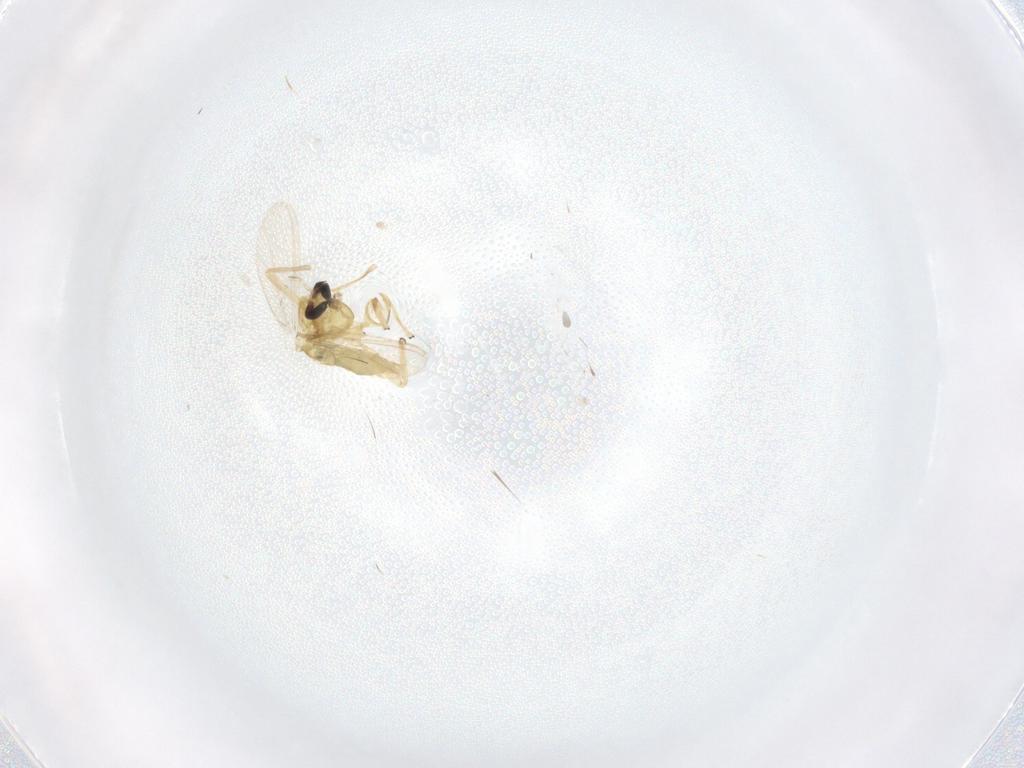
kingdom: Animalia
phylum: Arthropoda
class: Insecta
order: Diptera
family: Chironomidae
